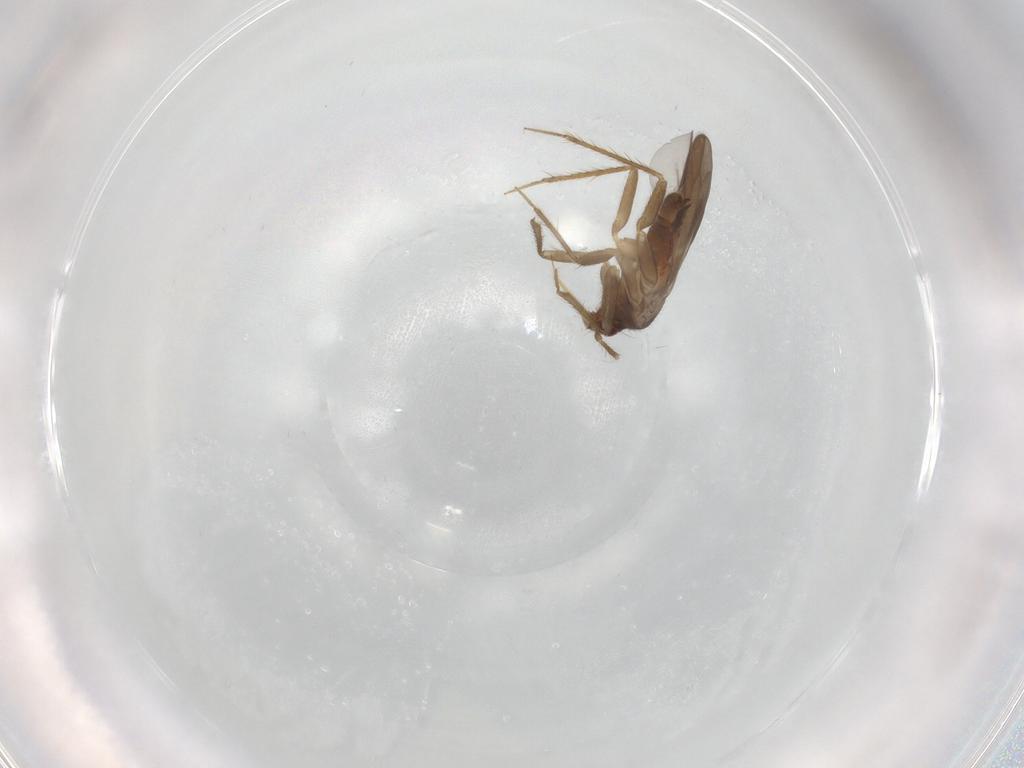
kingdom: Animalia
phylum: Arthropoda
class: Insecta
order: Hemiptera
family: Ceratocombidae
